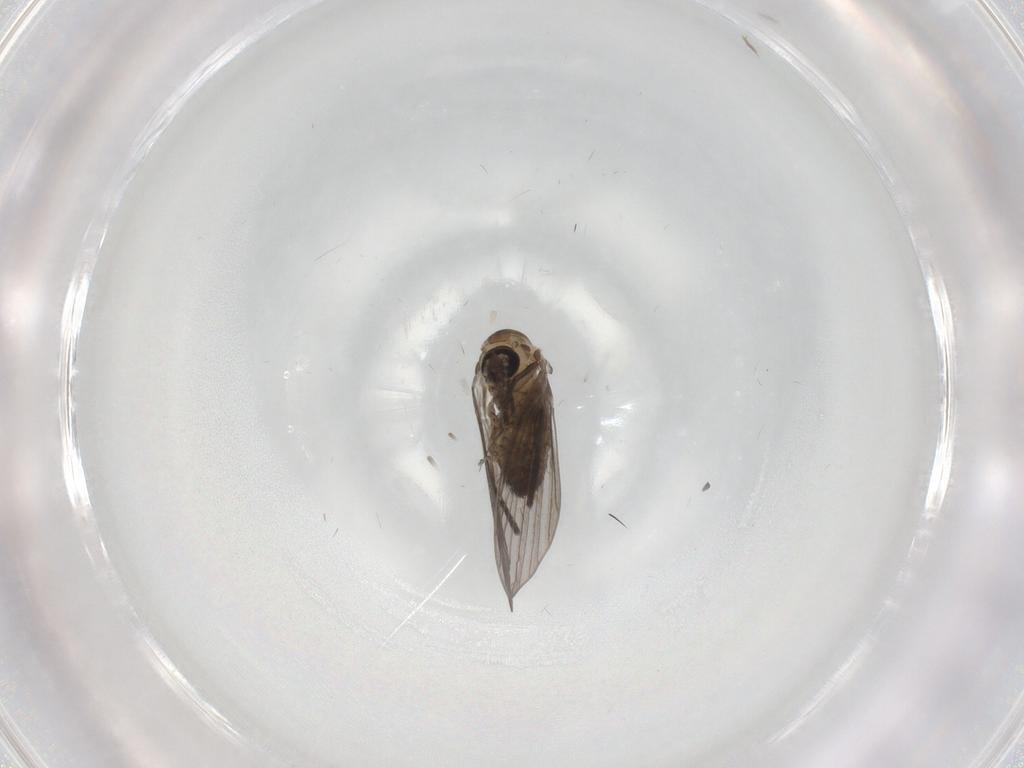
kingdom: Animalia
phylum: Arthropoda
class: Insecta
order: Diptera
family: Psychodidae
